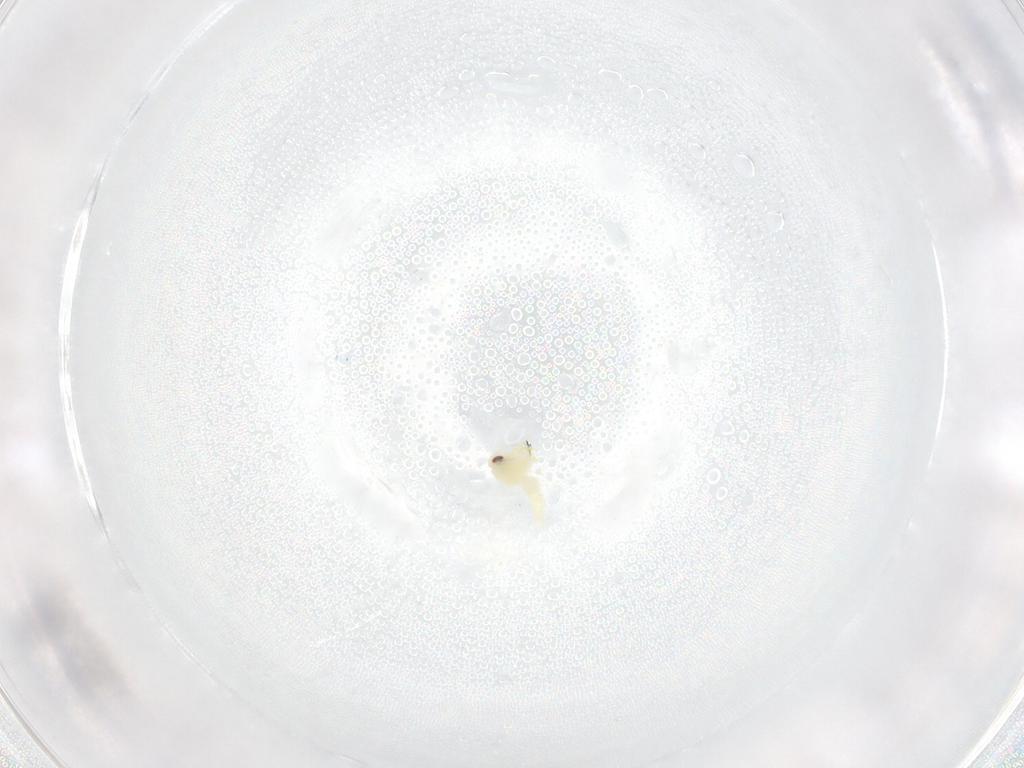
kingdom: Animalia
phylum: Arthropoda
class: Insecta
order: Hemiptera
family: Aleyrodidae
